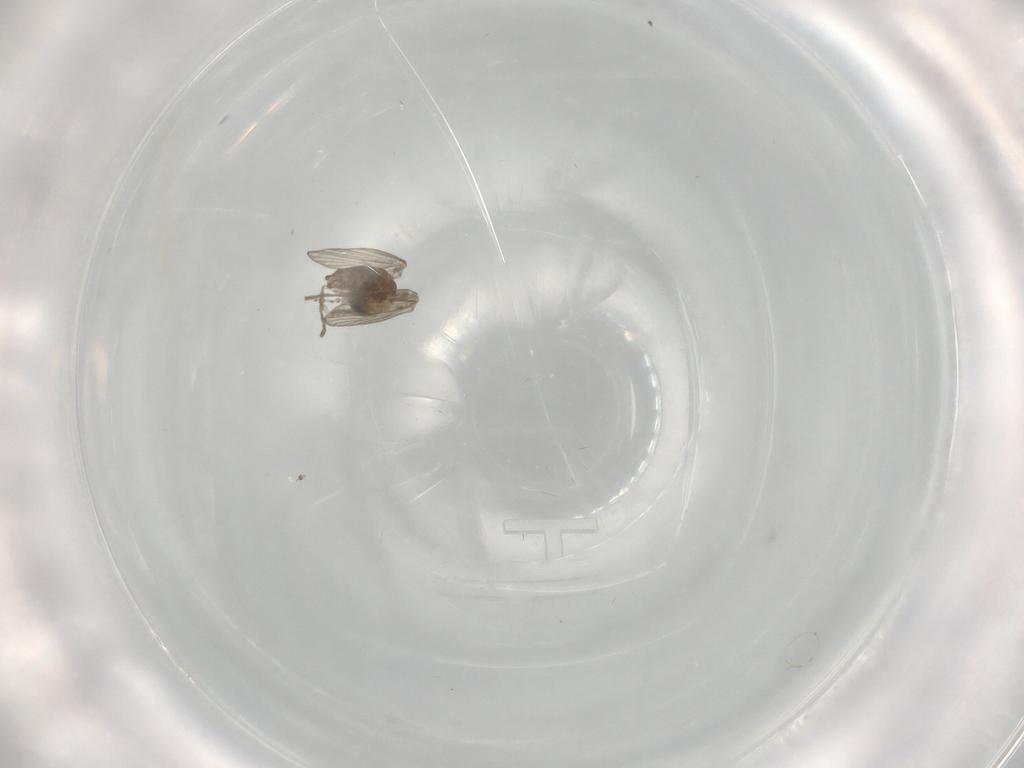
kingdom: Animalia
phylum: Arthropoda
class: Insecta
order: Diptera
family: Psychodidae
